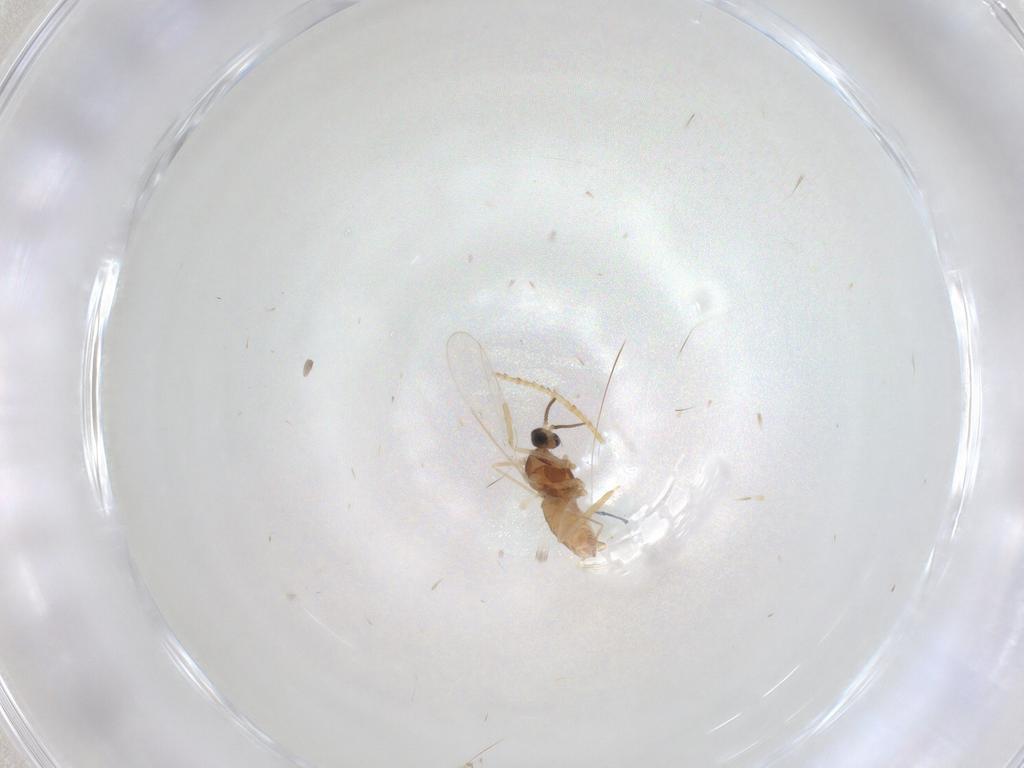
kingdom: Animalia
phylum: Arthropoda
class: Insecta
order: Diptera
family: Cecidomyiidae
